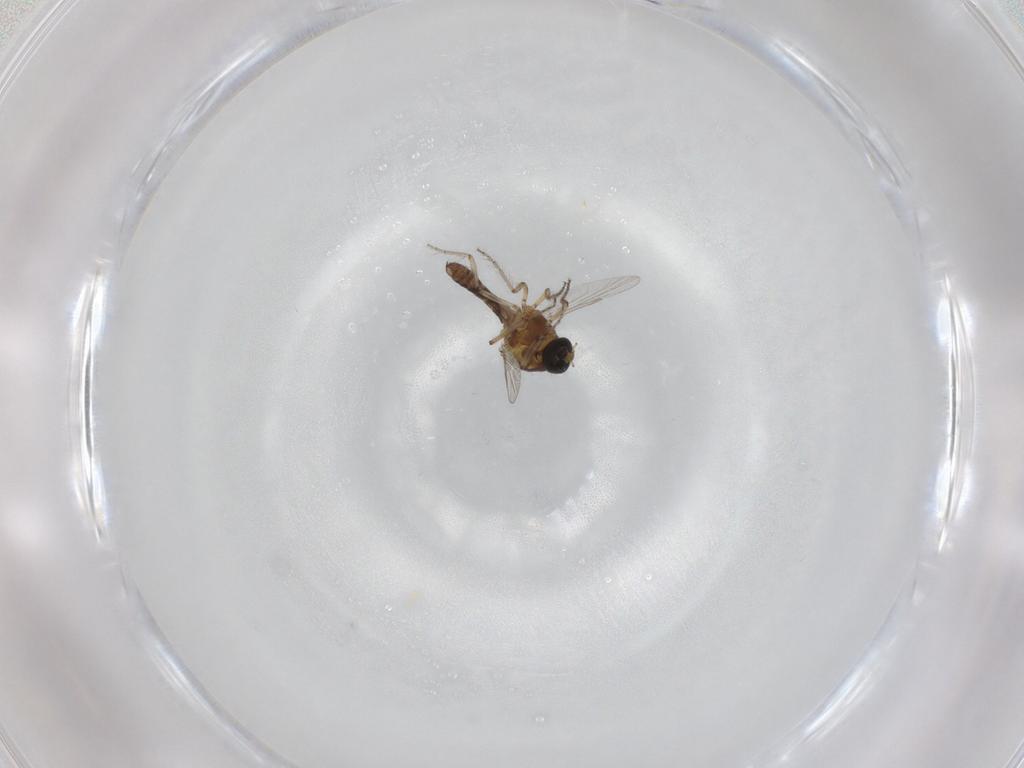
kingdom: Animalia
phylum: Arthropoda
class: Insecta
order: Diptera
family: Ceratopogonidae
